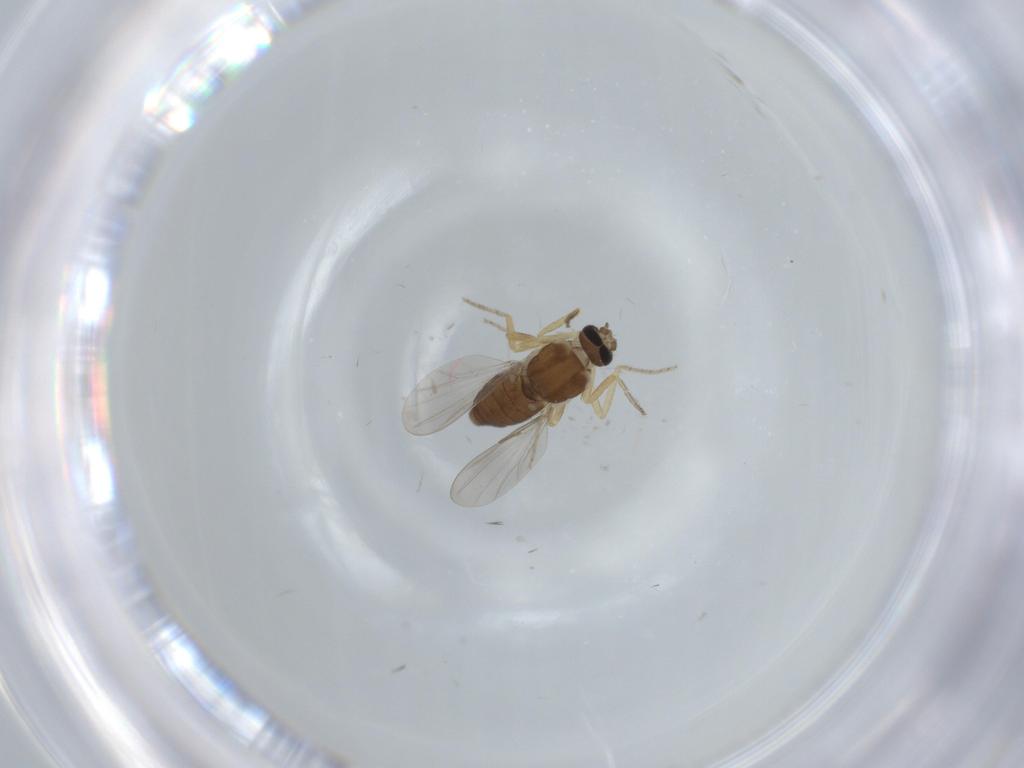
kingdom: Animalia
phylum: Arthropoda
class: Insecta
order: Diptera
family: Ceratopogonidae
